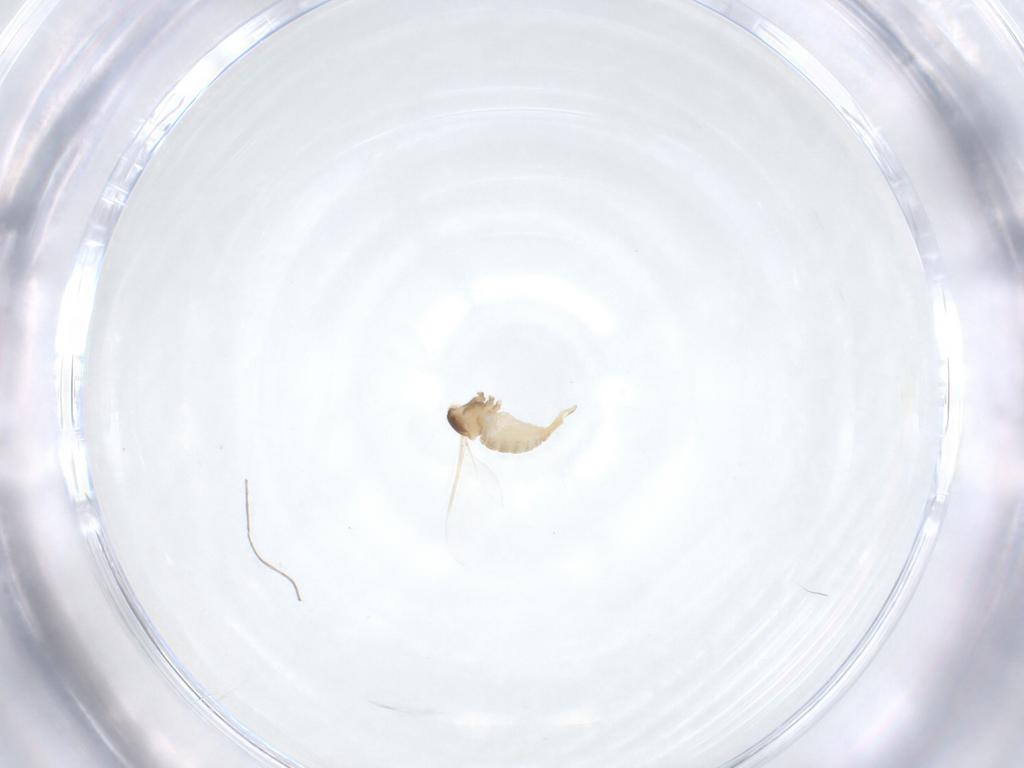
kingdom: Animalia
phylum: Arthropoda
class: Insecta
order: Diptera
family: Cecidomyiidae
